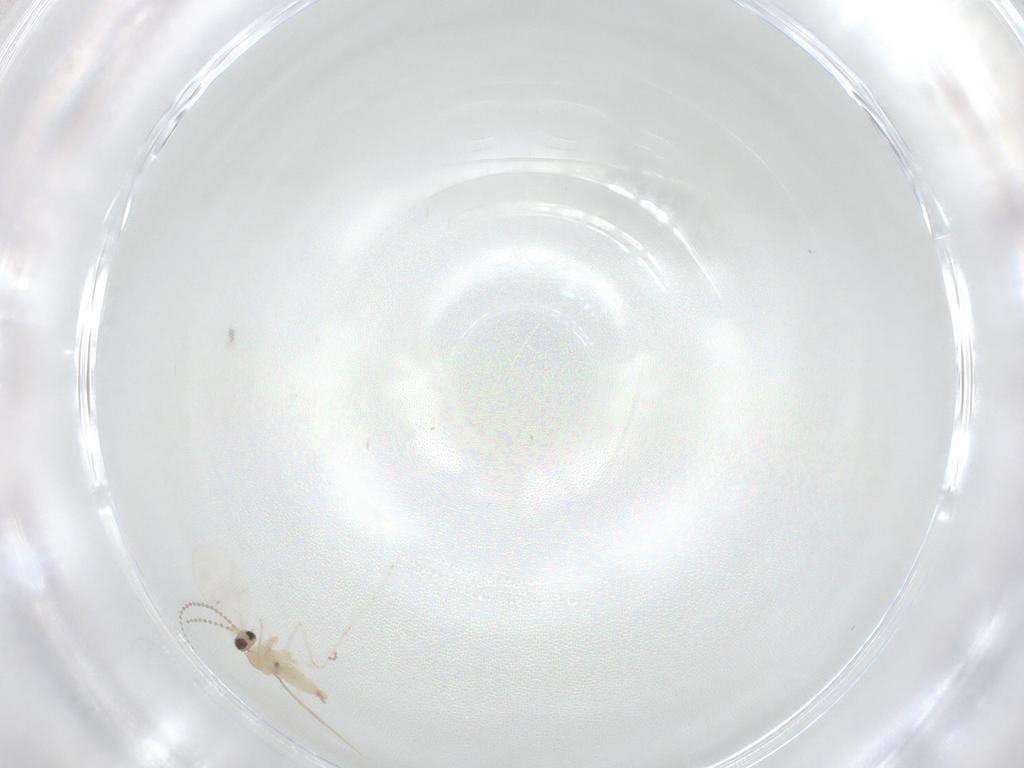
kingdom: Animalia
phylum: Arthropoda
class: Insecta
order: Diptera
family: Cecidomyiidae
